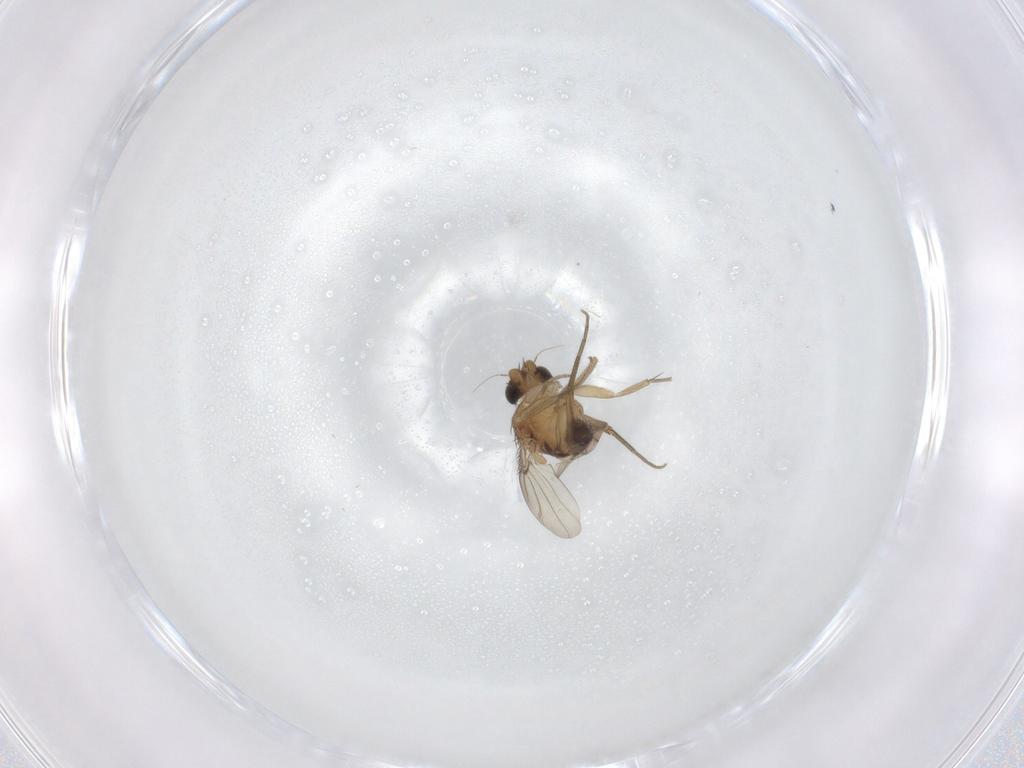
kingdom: Animalia
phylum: Arthropoda
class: Insecta
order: Diptera
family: Phoridae
